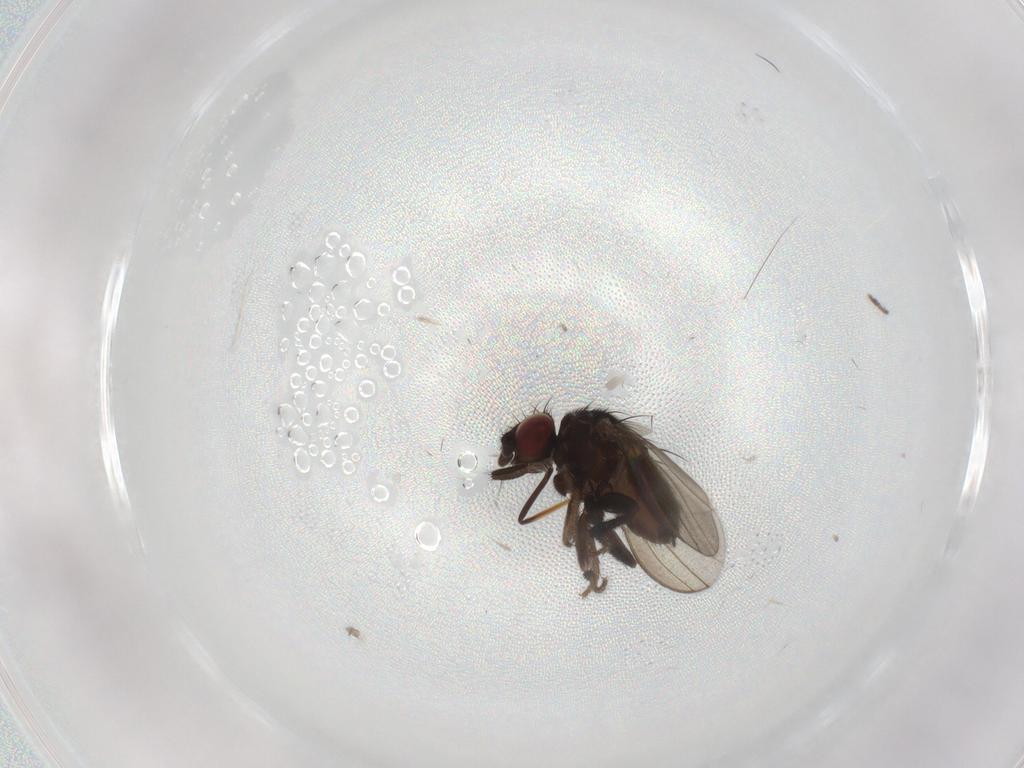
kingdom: Animalia
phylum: Arthropoda
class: Insecta
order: Diptera
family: Milichiidae
